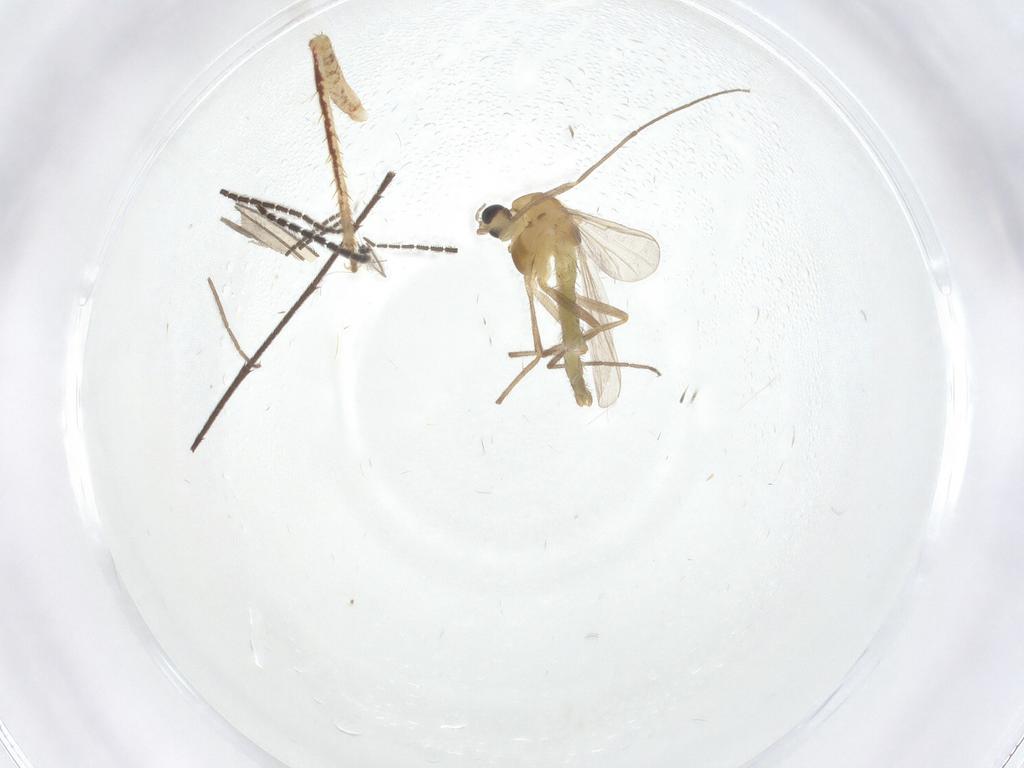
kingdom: Animalia
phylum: Arthropoda
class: Insecta
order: Diptera
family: Chironomidae
